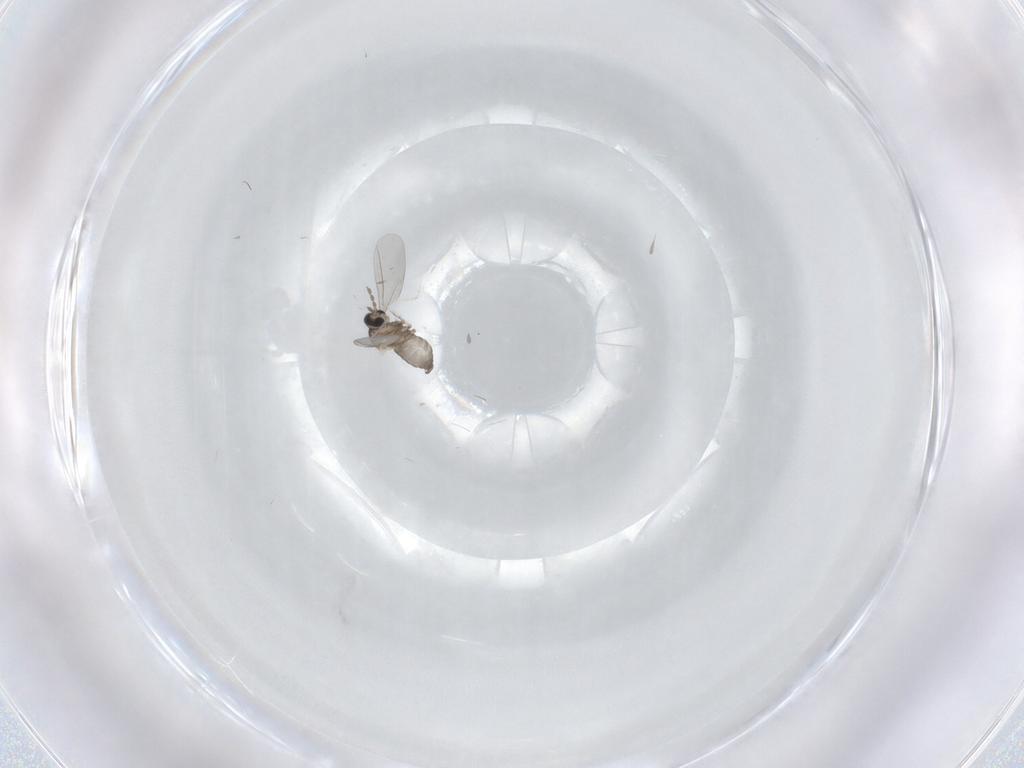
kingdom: Animalia
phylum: Arthropoda
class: Insecta
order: Diptera
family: Cecidomyiidae
